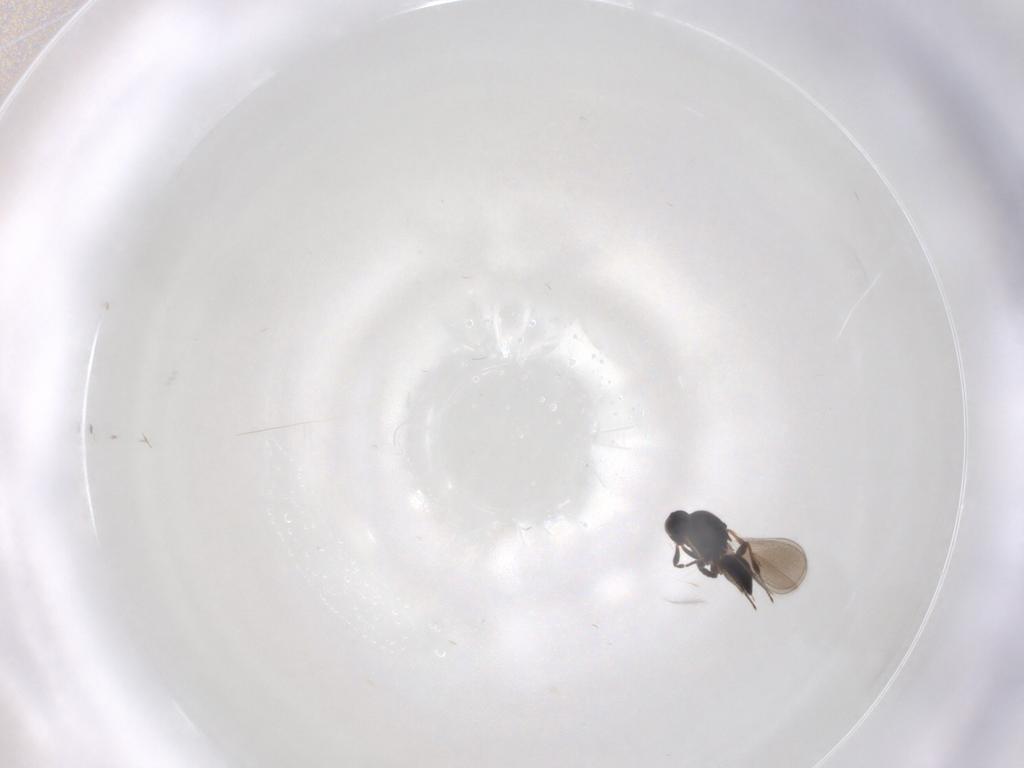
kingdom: Animalia
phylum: Arthropoda
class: Insecta
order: Hymenoptera
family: Platygastridae
